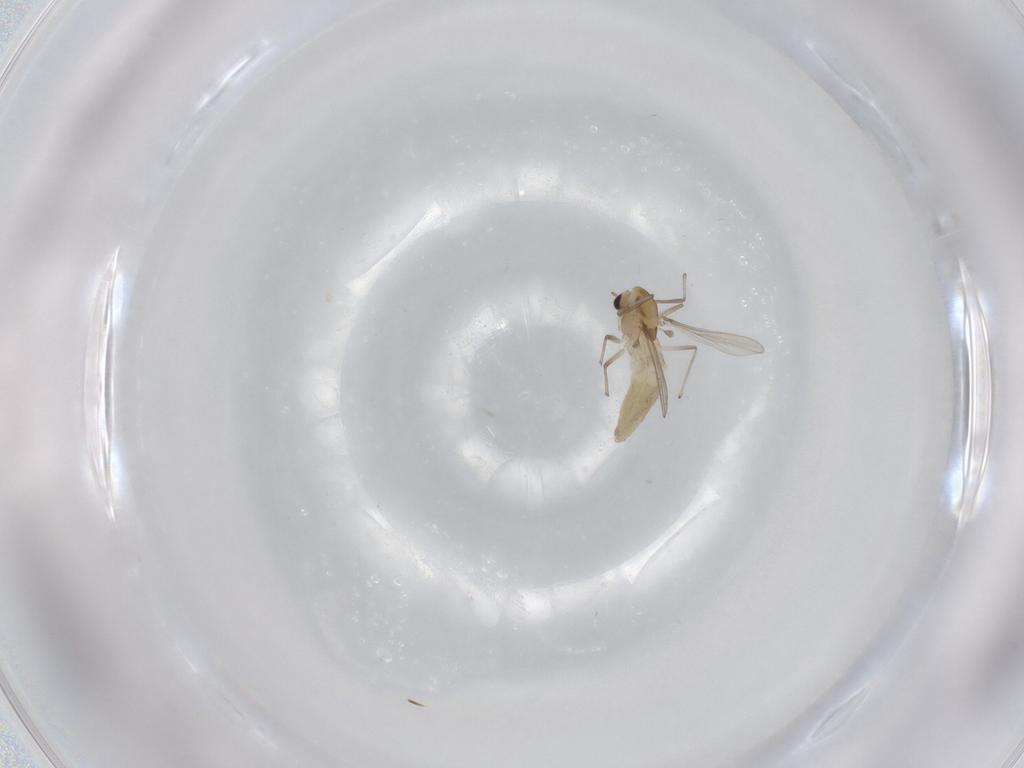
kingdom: Animalia
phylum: Arthropoda
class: Insecta
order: Diptera
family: Chironomidae
